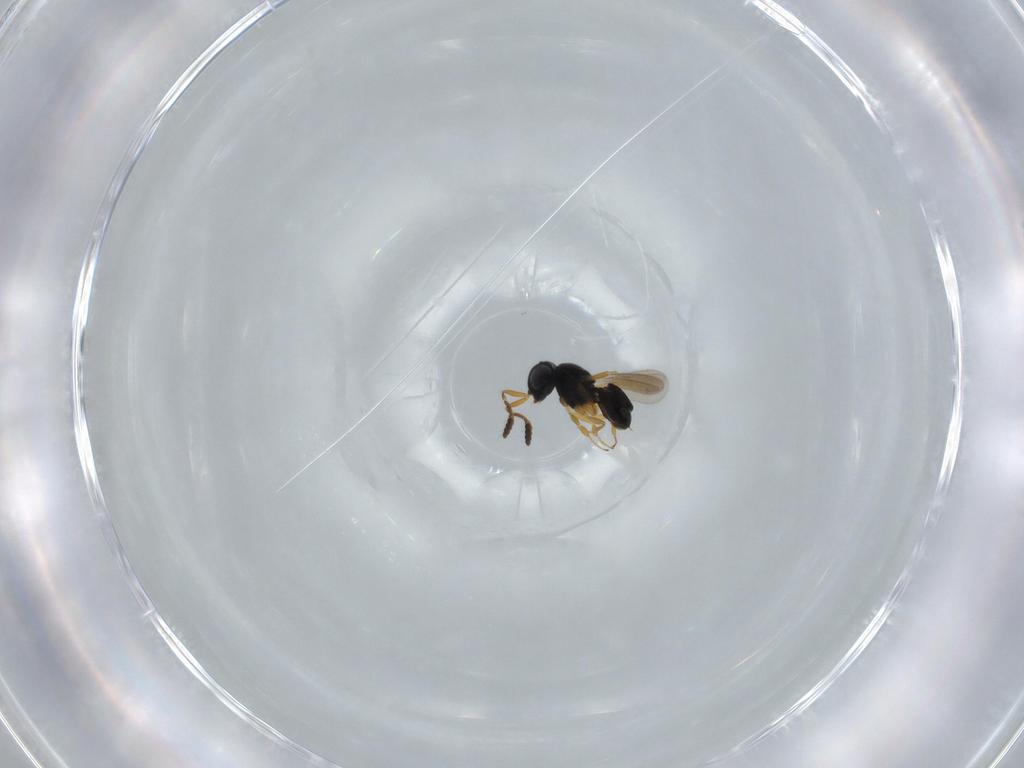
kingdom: Animalia
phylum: Arthropoda
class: Insecta
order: Hymenoptera
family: Scelionidae
